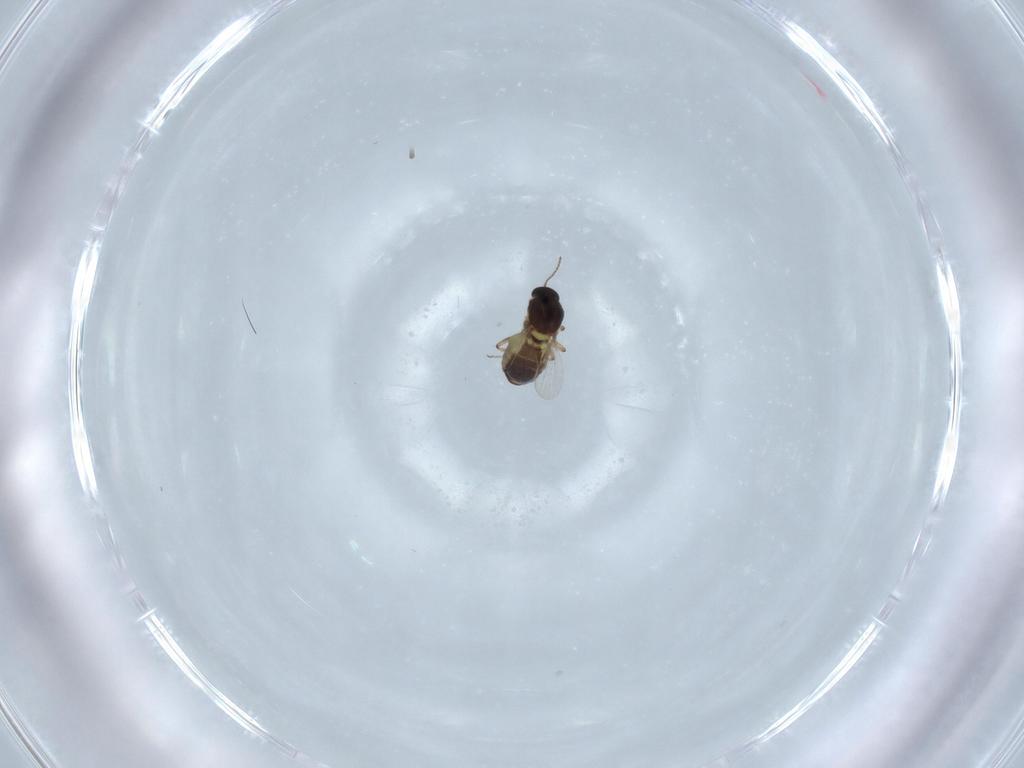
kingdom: Animalia
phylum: Arthropoda
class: Insecta
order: Diptera
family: Ceratopogonidae
